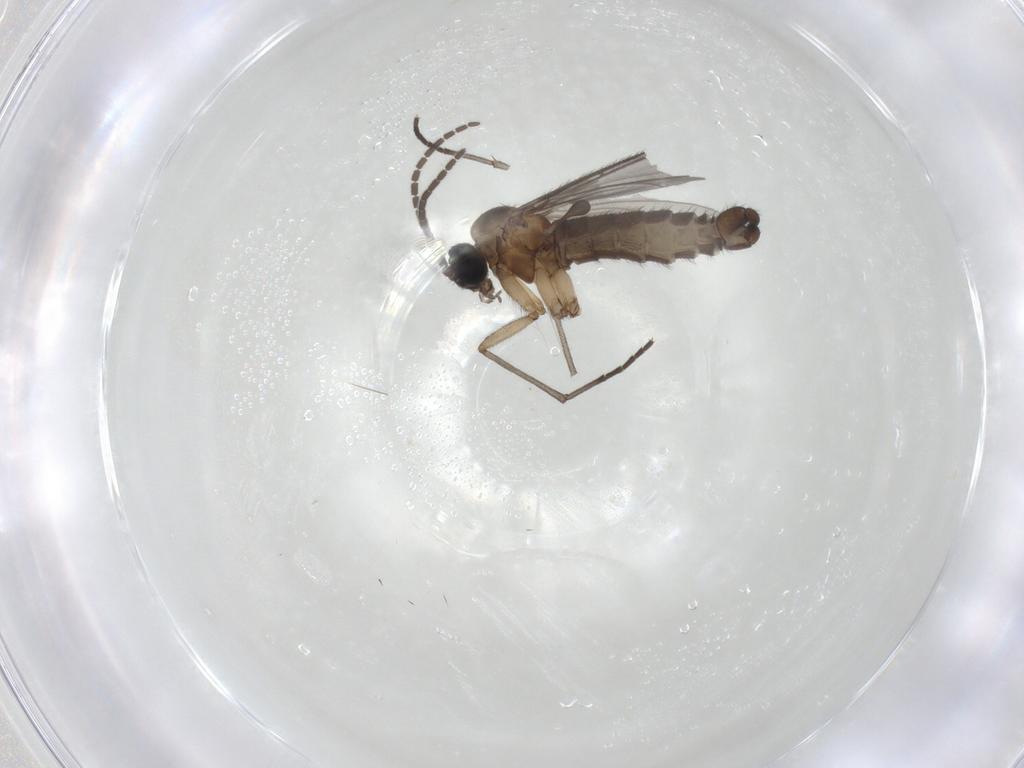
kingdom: Animalia
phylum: Arthropoda
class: Insecta
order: Diptera
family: Sciaridae
